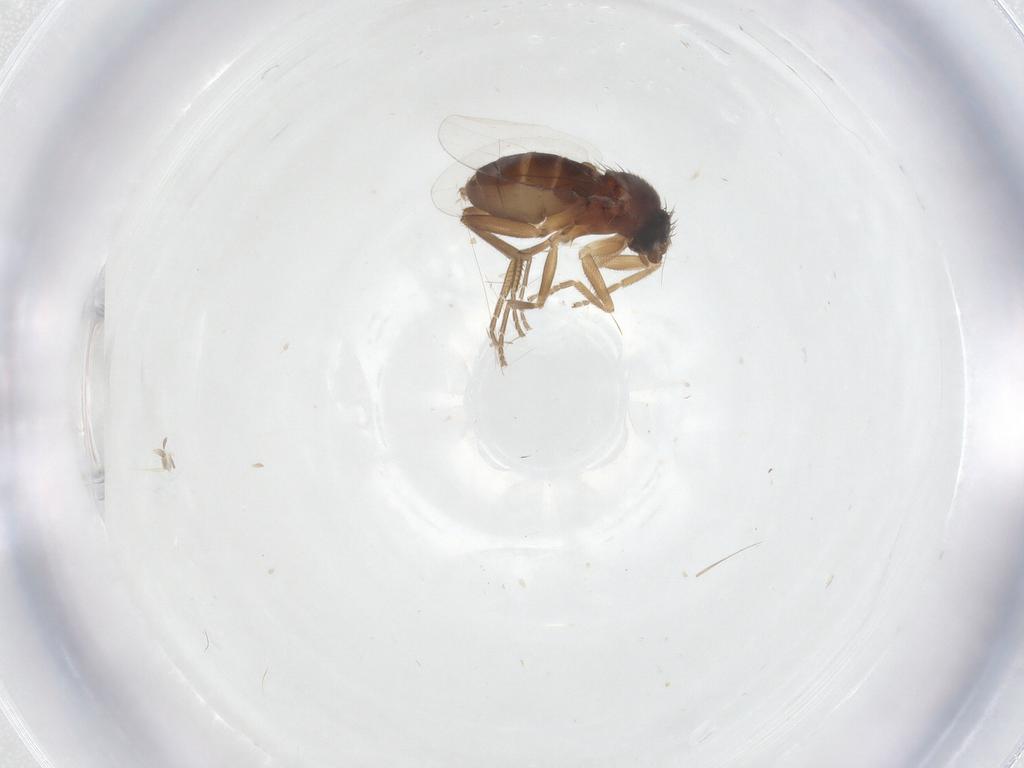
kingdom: Animalia
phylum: Arthropoda
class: Insecta
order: Diptera
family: Phoridae
